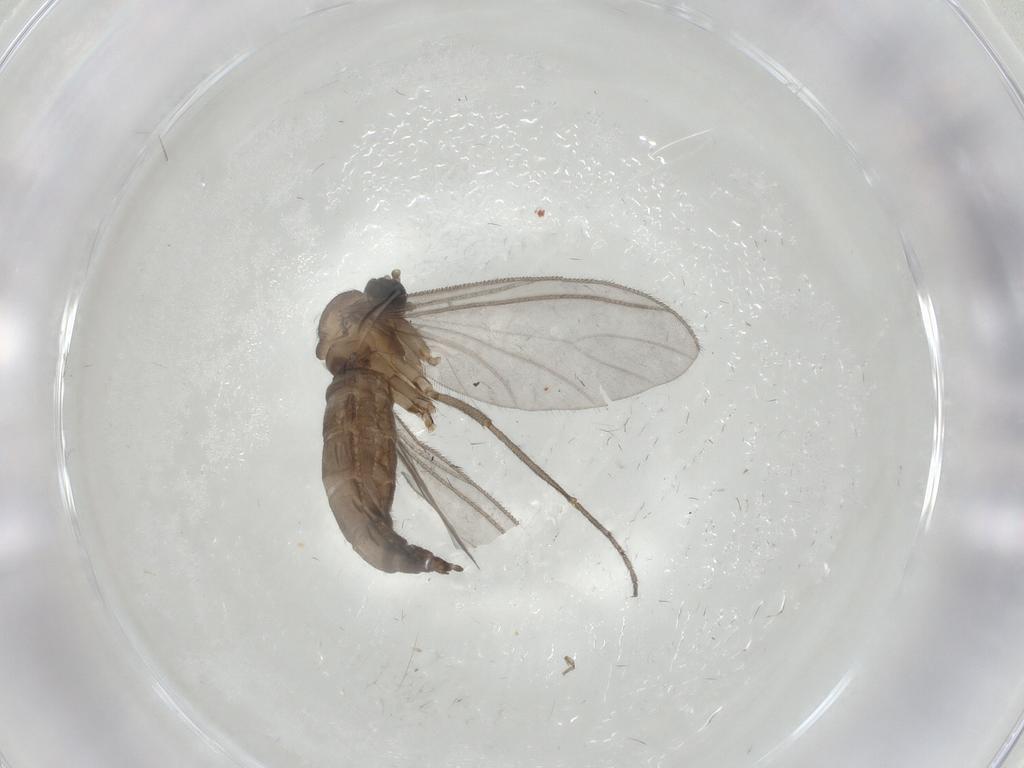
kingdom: Animalia
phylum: Arthropoda
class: Insecta
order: Diptera
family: Sciaridae
